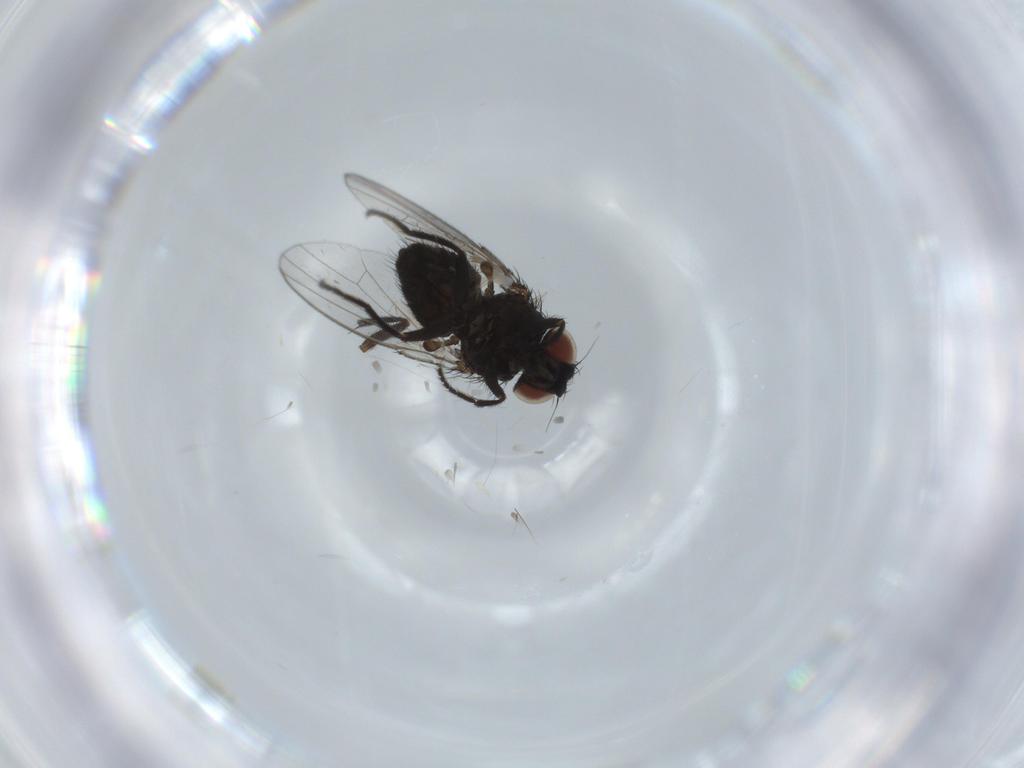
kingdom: Animalia
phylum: Arthropoda
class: Insecta
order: Diptera
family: Milichiidae
